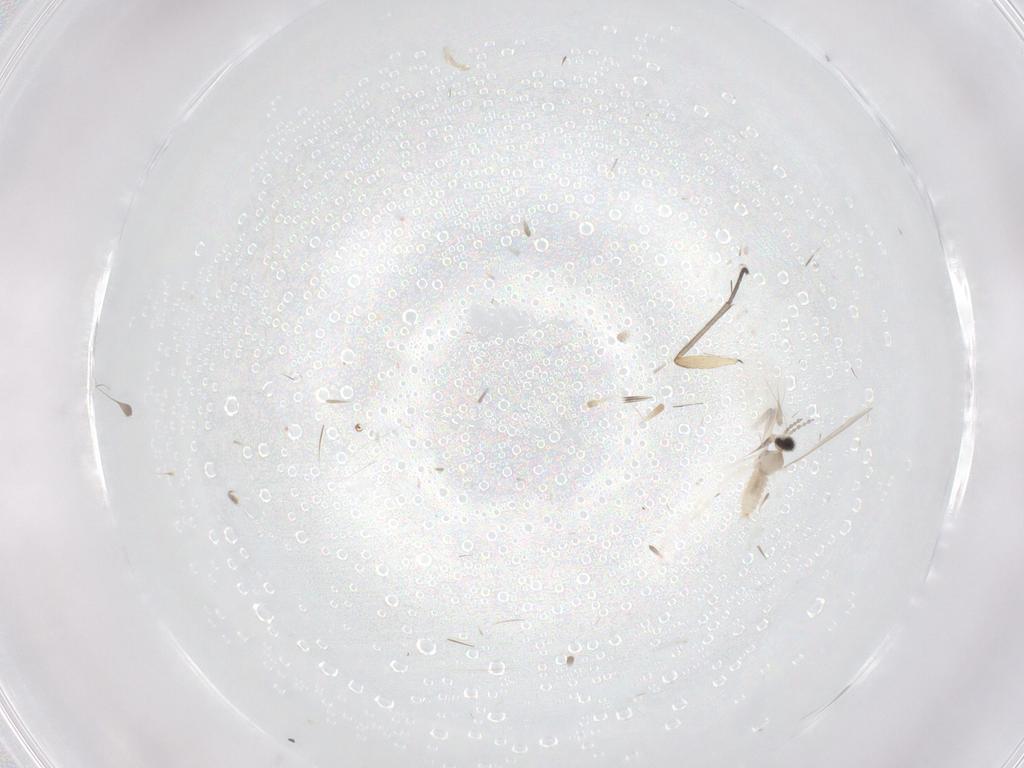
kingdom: Animalia
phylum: Arthropoda
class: Insecta
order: Diptera
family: Cecidomyiidae
